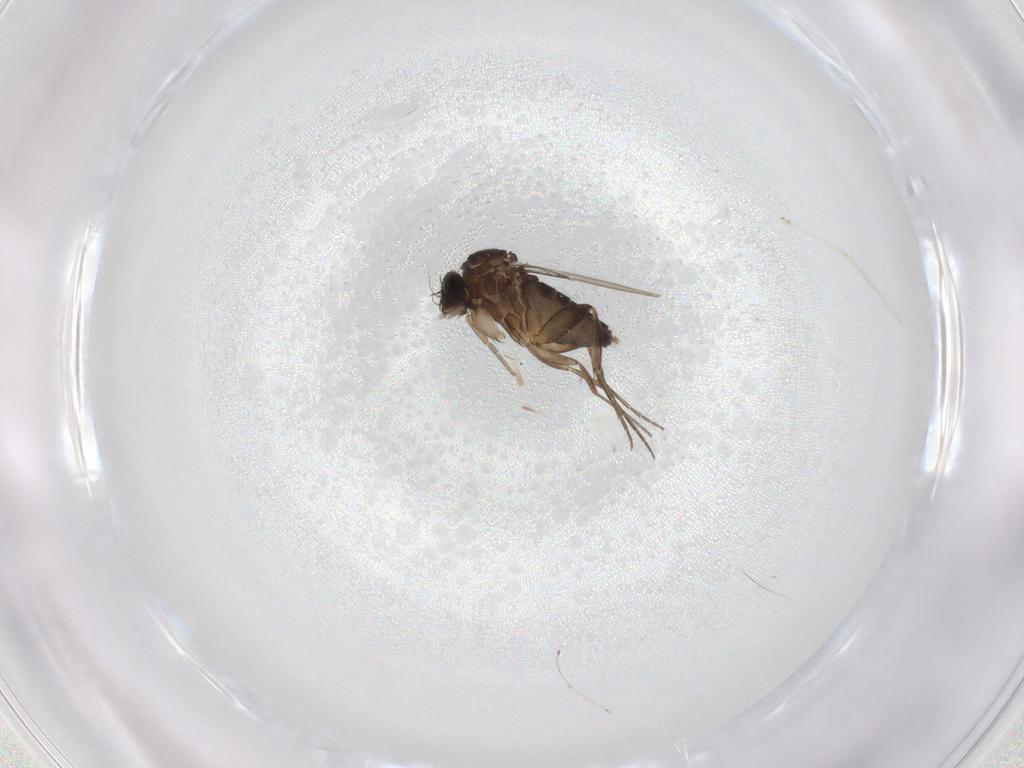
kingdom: Animalia
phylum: Arthropoda
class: Insecta
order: Diptera
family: Phoridae
